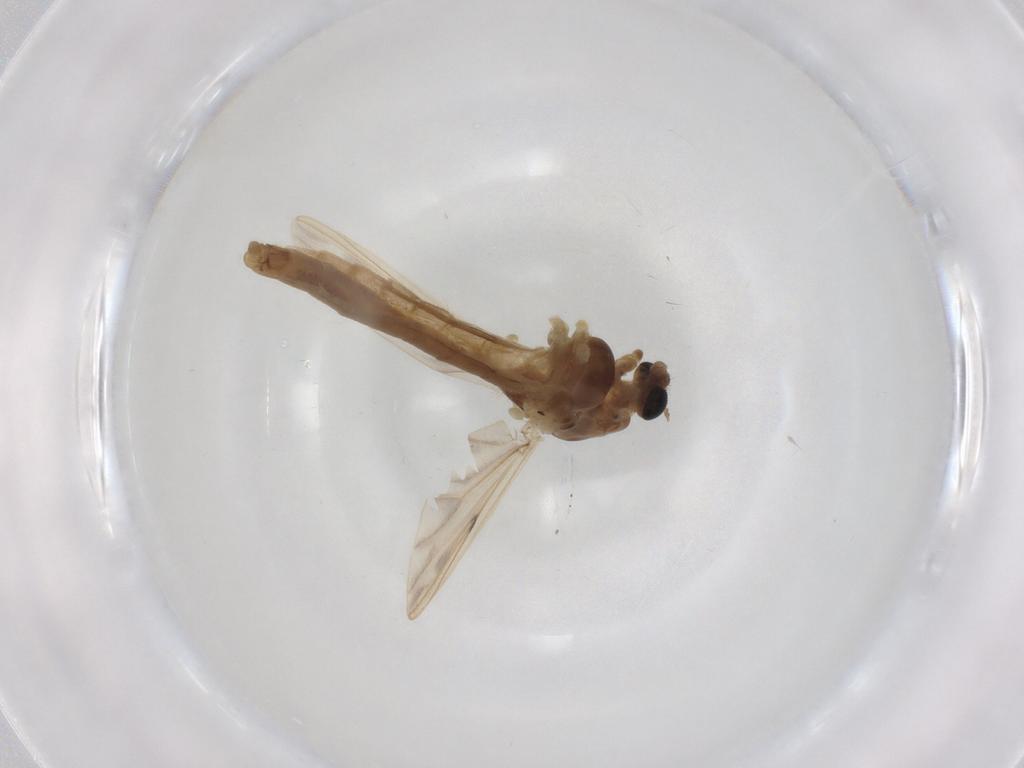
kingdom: Animalia
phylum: Arthropoda
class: Insecta
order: Diptera
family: Chironomidae
